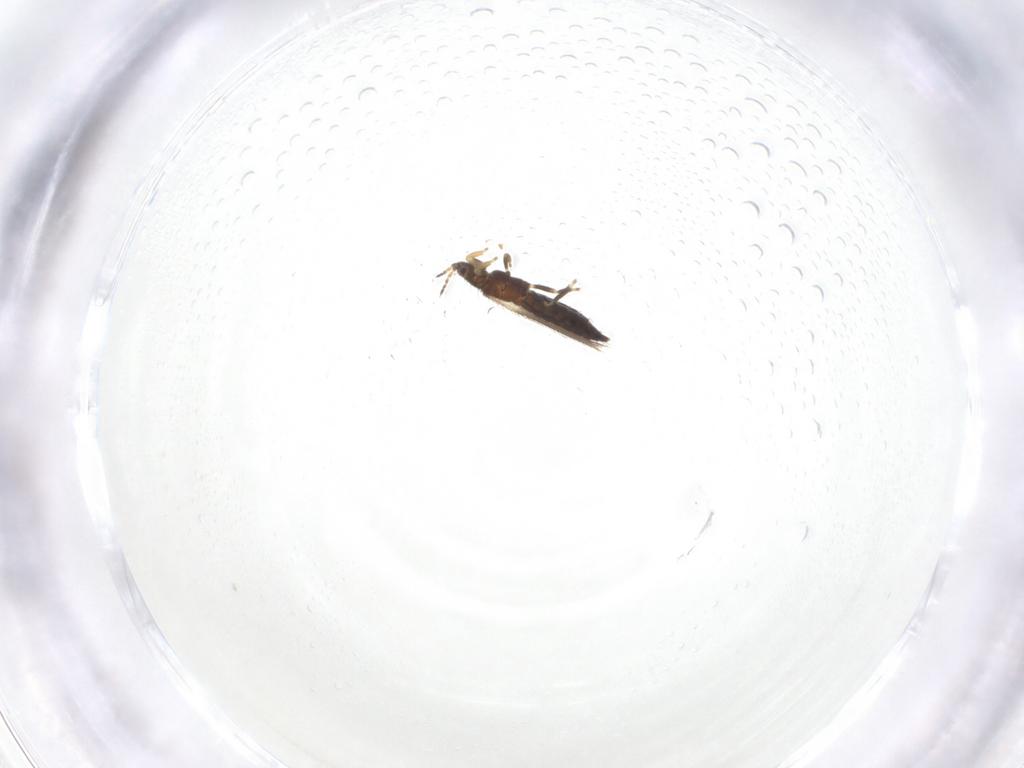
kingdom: Animalia
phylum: Arthropoda
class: Insecta
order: Thysanoptera
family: Thripidae
